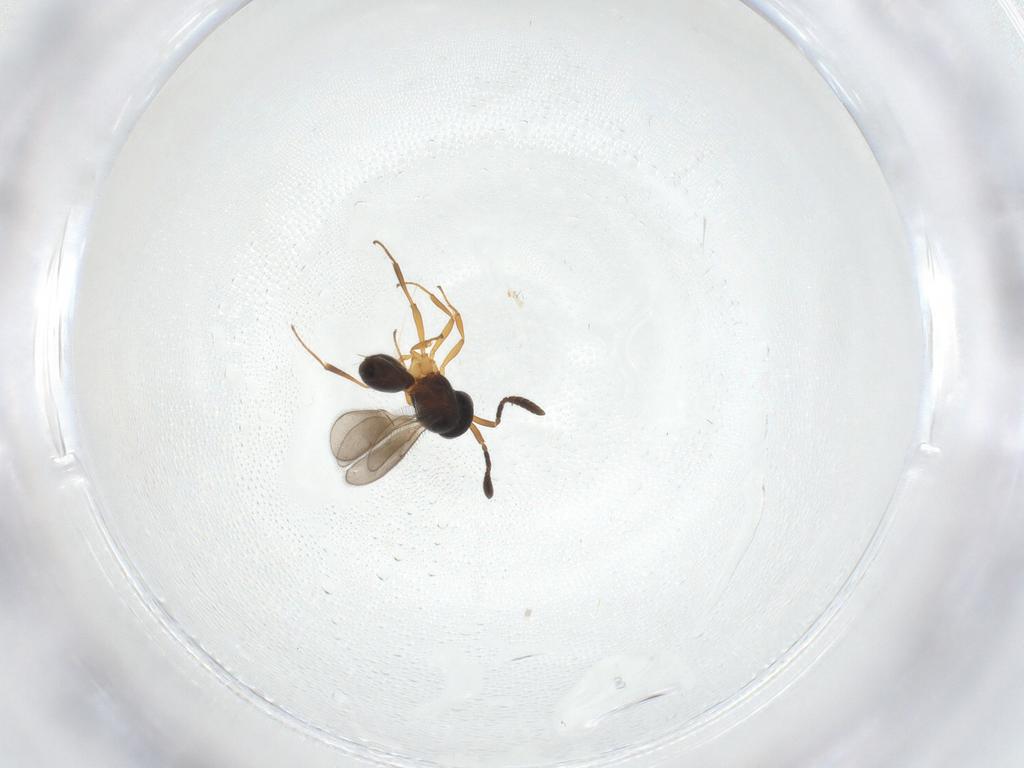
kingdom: Animalia
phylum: Arthropoda
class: Insecta
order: Hymenoptera
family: Scelionidae
